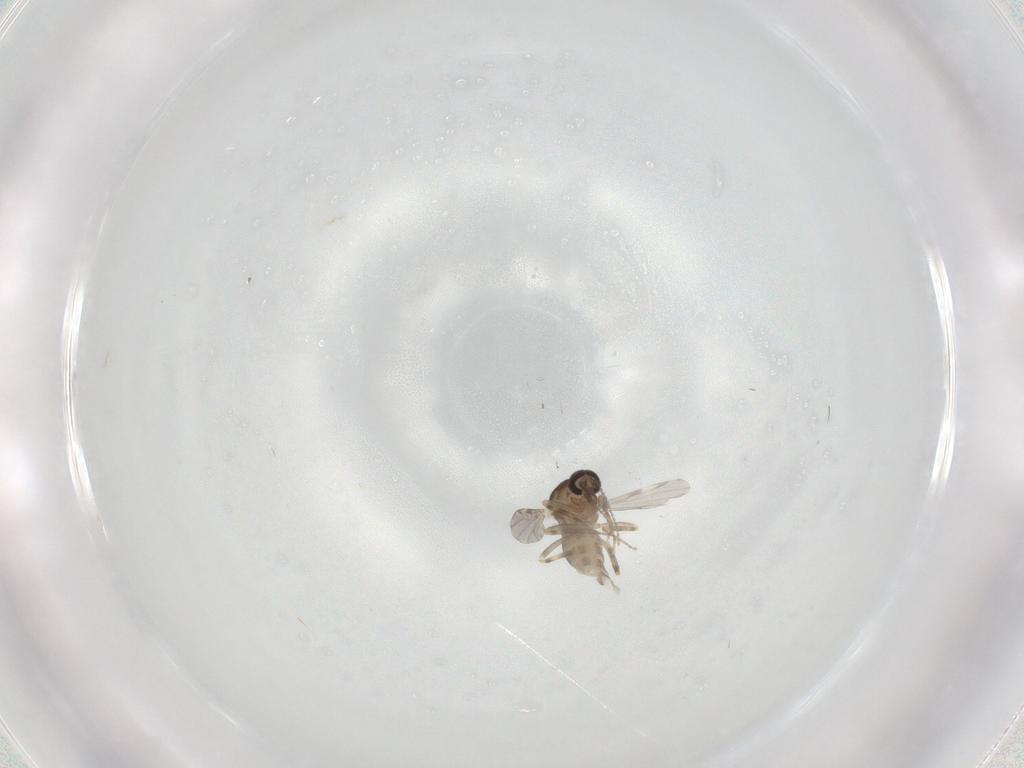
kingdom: Animalia
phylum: Arthropoda
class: Insecta
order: Diptera
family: Ceratopogonidae
